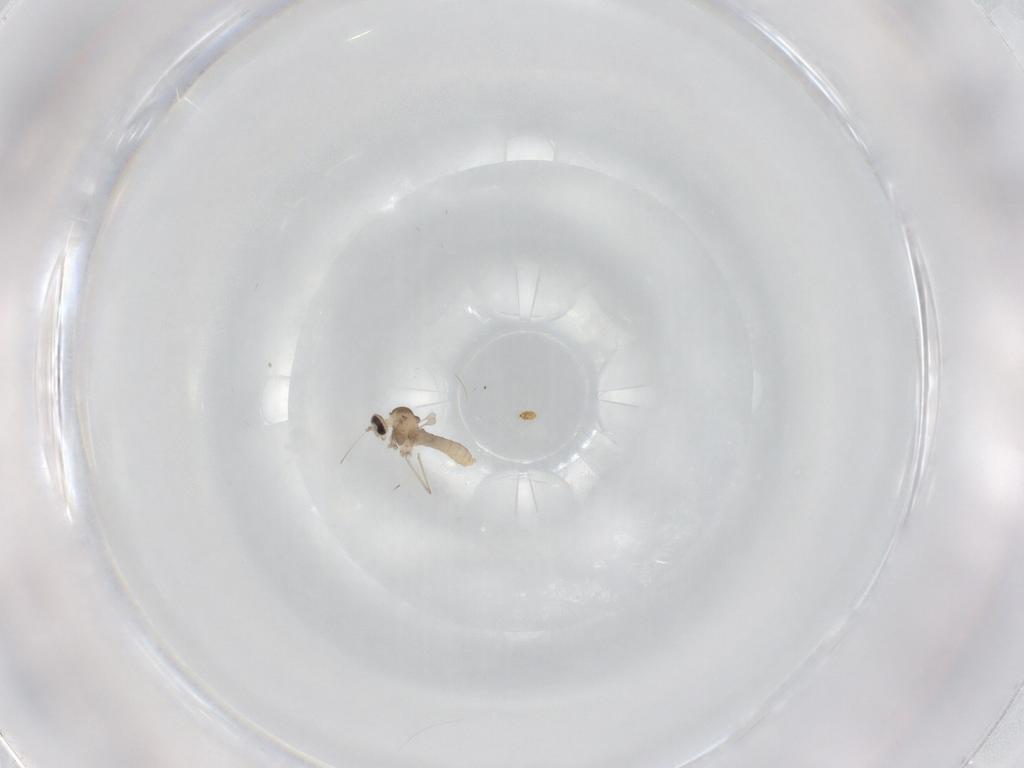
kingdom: Animalia
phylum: Arthropoda
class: Insecta
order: Diptera
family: Cecidomyiidae
